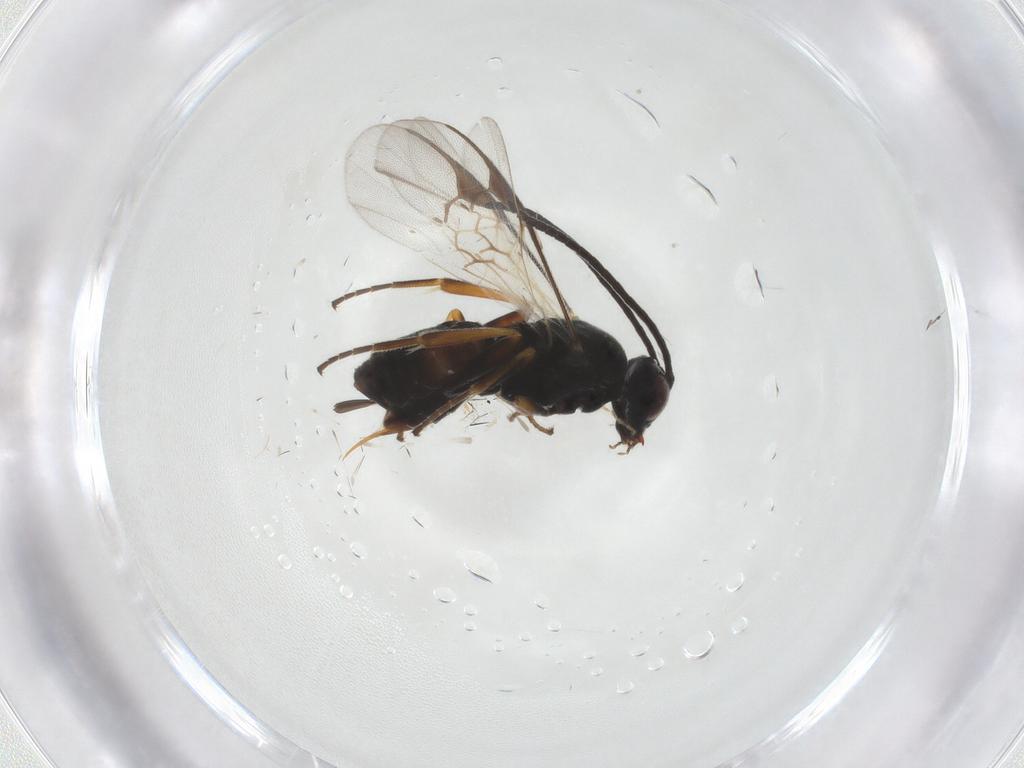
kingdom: Animalia
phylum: Arthropoda
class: Insecta
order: Hymenoptera
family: Braconidae
